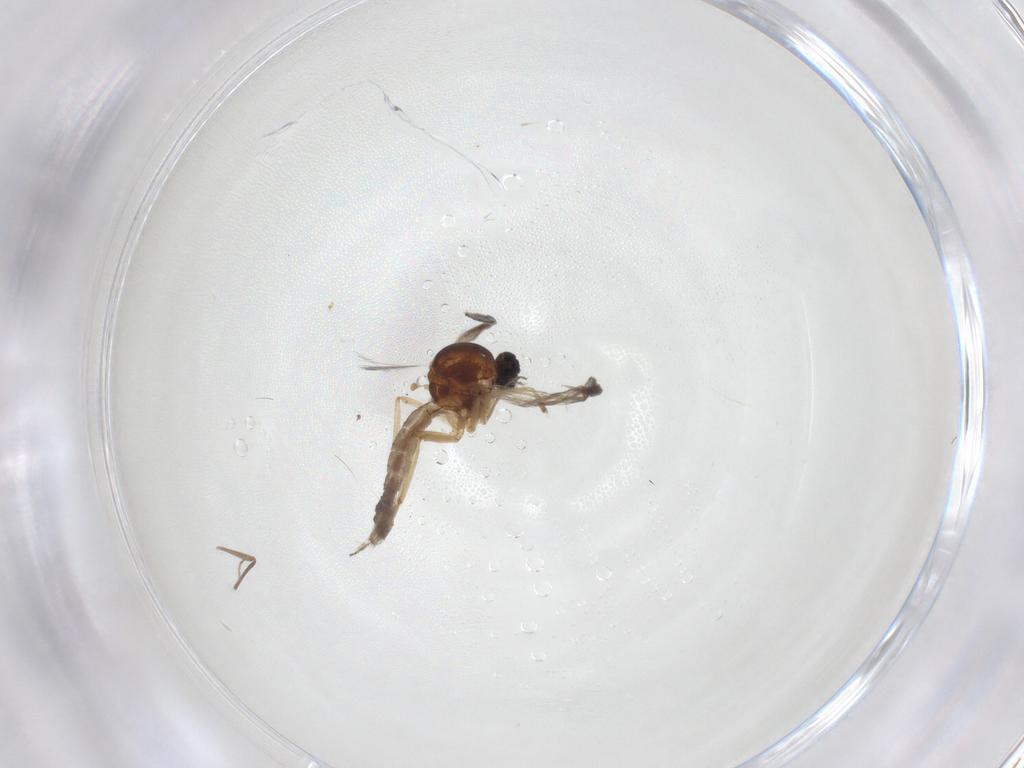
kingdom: Animalia
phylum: Arthropoda
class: Insecta
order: Diptera
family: Ceratopogonidae
